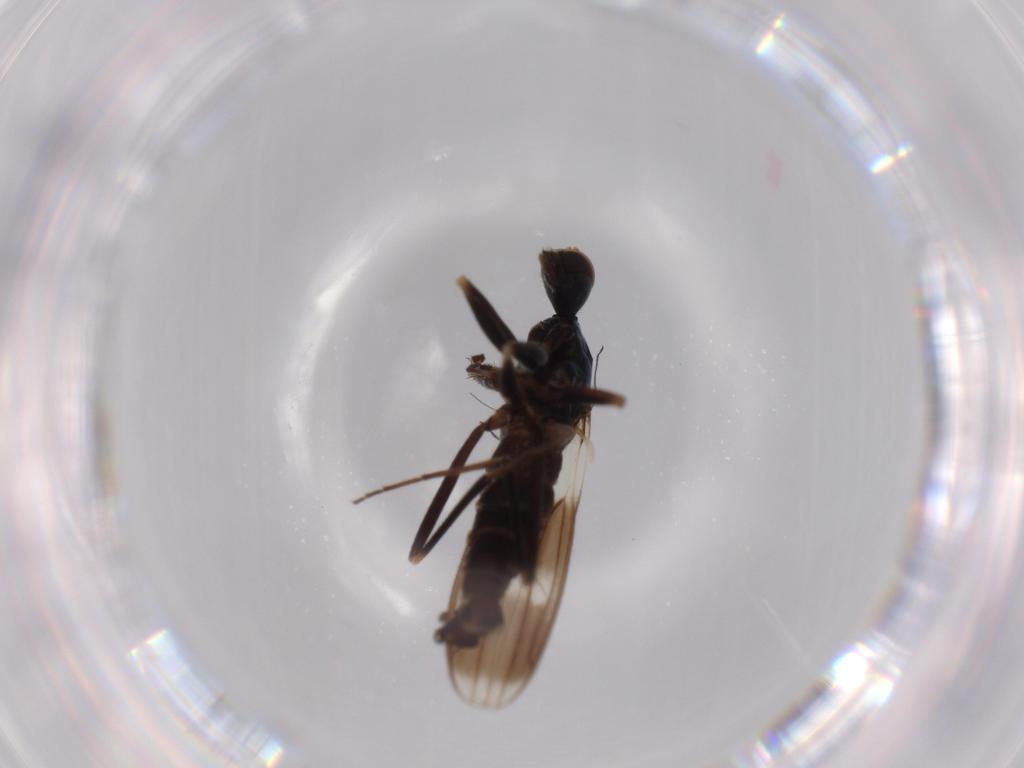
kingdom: Animalia
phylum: Arthropoda
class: Insecta
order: Diptera
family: Hybotidae
